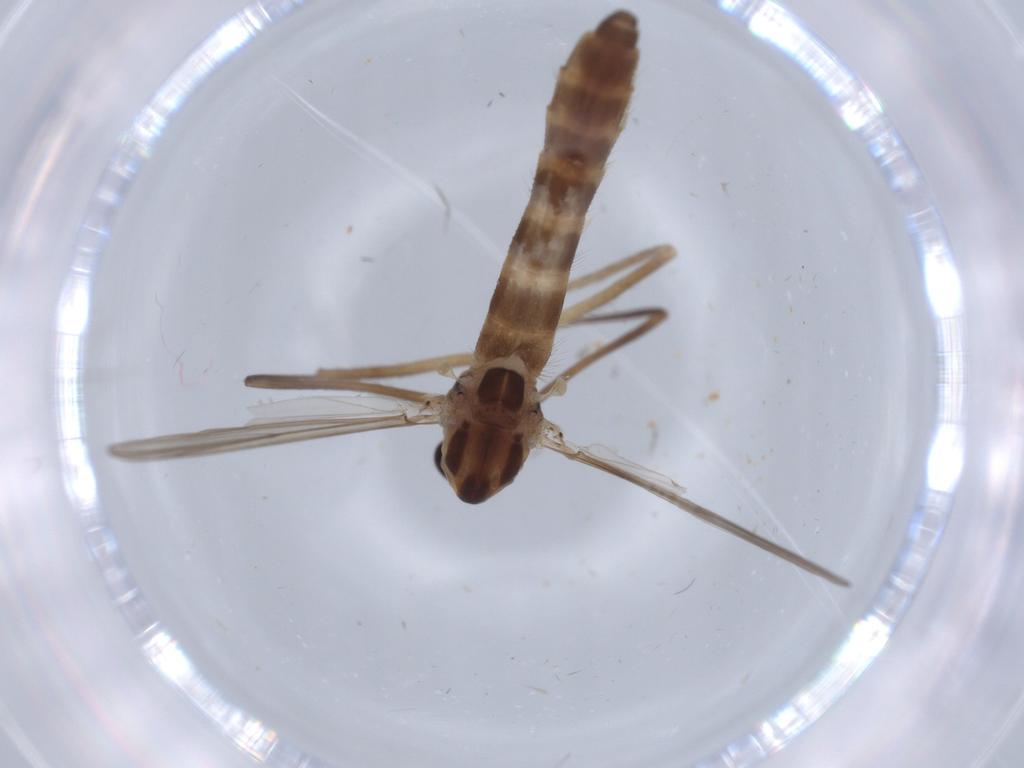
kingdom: Animalia
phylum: Arthropoda
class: Insecta
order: Diptera
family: Chironomidae
